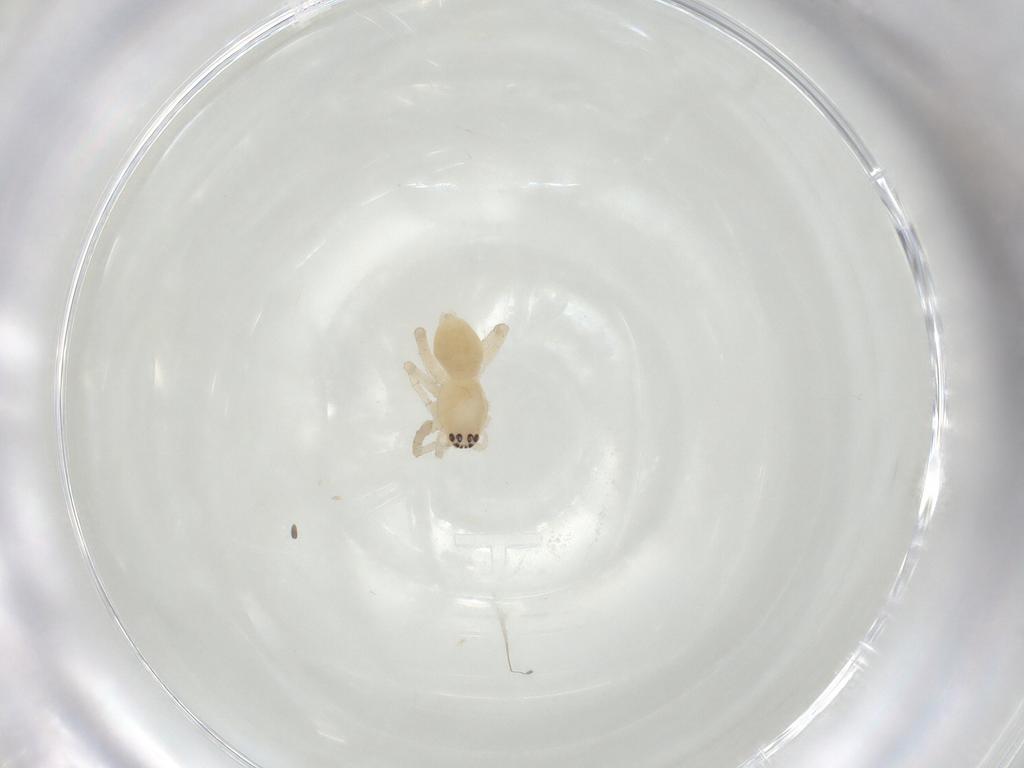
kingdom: Animalia
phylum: Arthropoda
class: Arachnida
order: Araneae
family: Anyphaenidae
